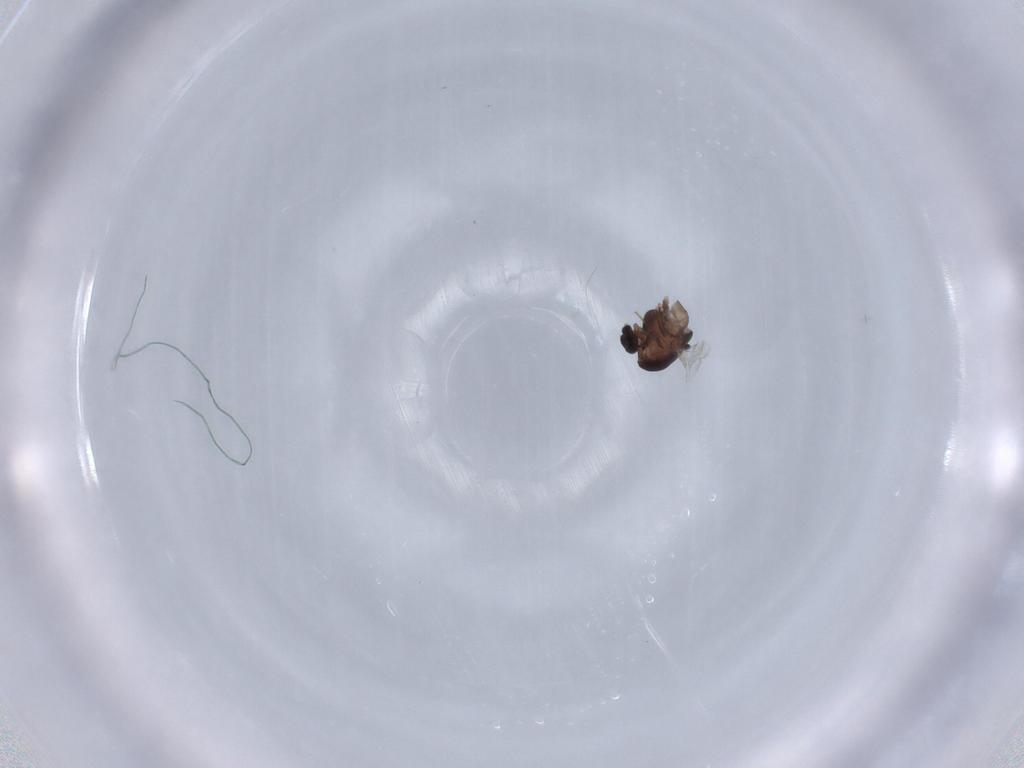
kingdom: Animalia
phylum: Arthropoda
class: Insecta
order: Diptera
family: Chironomidae
